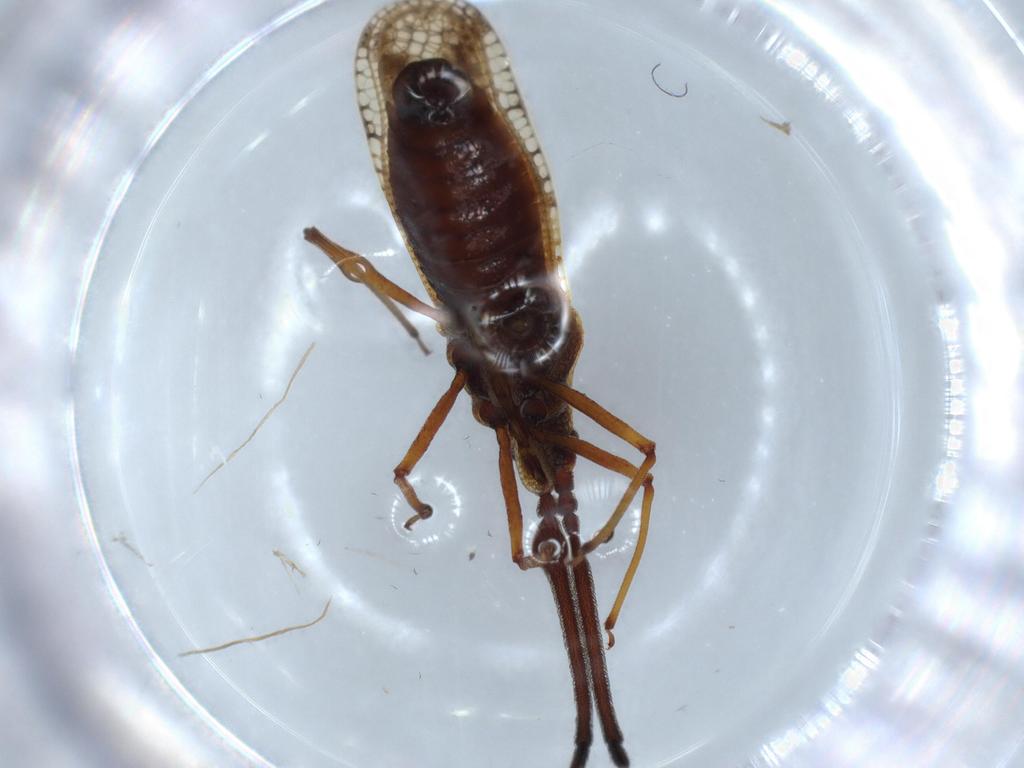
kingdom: Animalia
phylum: Arthropoda
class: Insecta
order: Hemiptera
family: Tingidae
